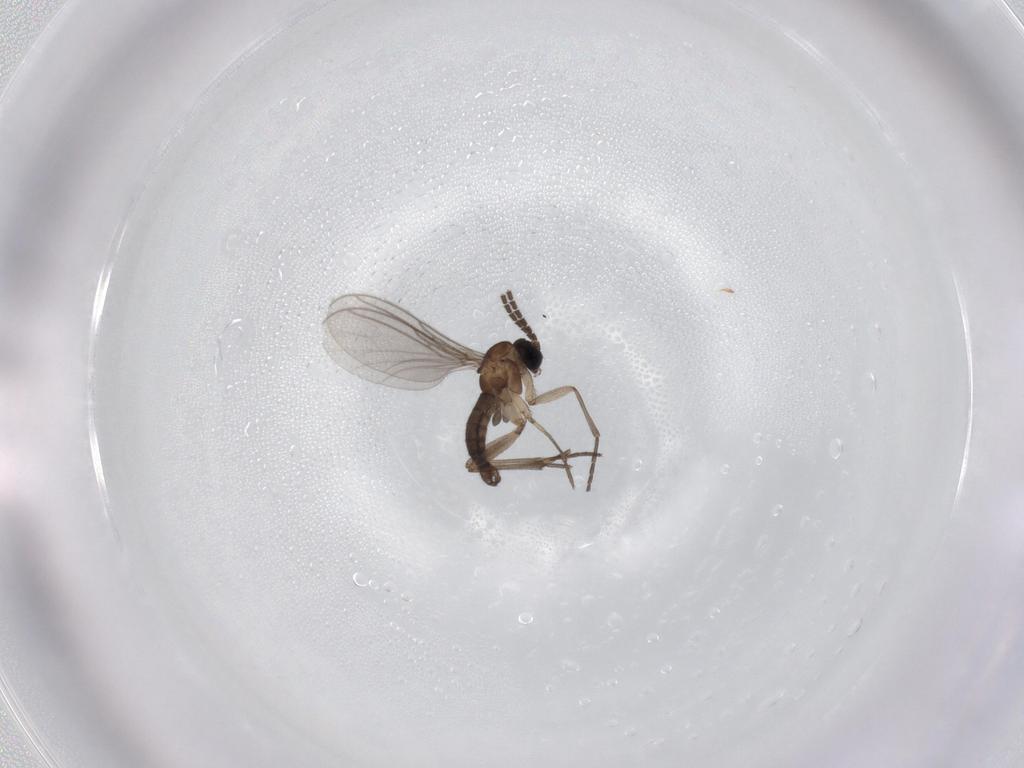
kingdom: Animalia
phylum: Arthropoda
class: Insecta
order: Diptera
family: Sciaridae
